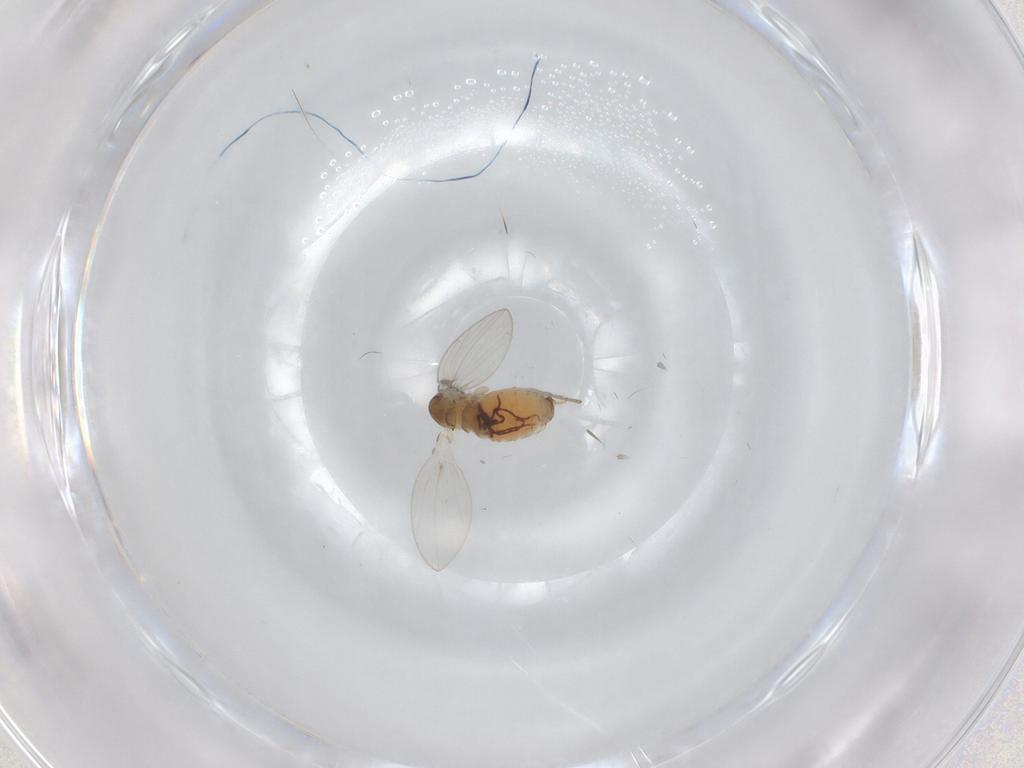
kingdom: Animalia
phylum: Arthropoda
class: Insecta
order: Diptera
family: Psychodidae
